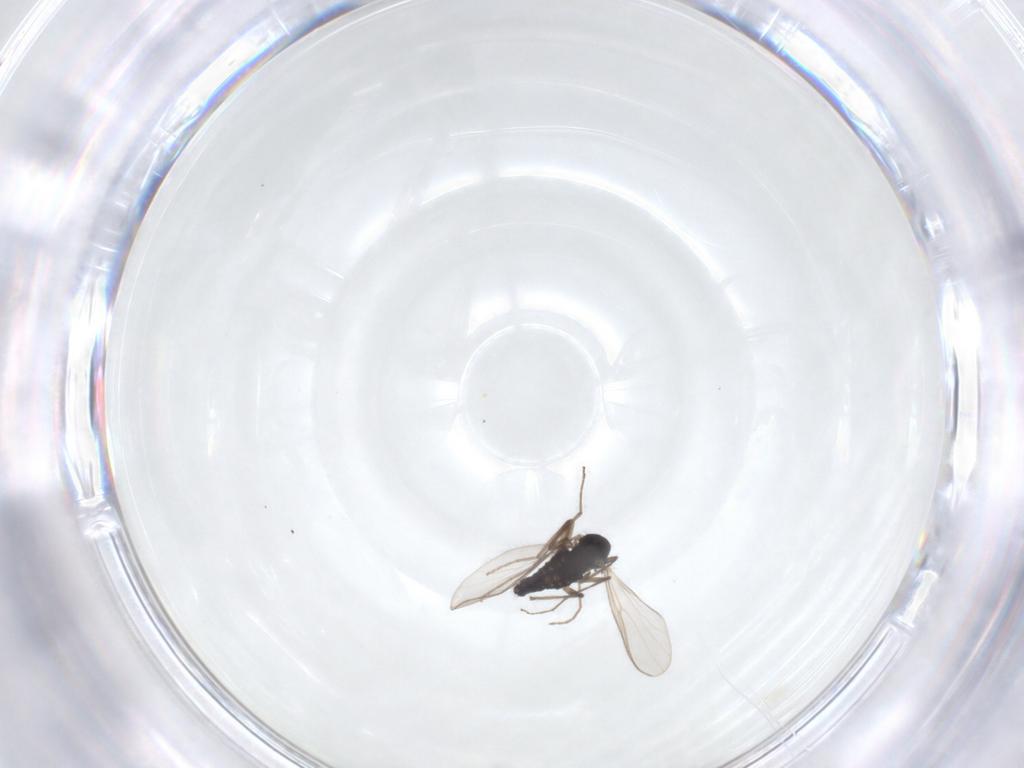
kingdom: Animalia
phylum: Arthropoda
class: Insecta
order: Diptera
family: Chironomidae
